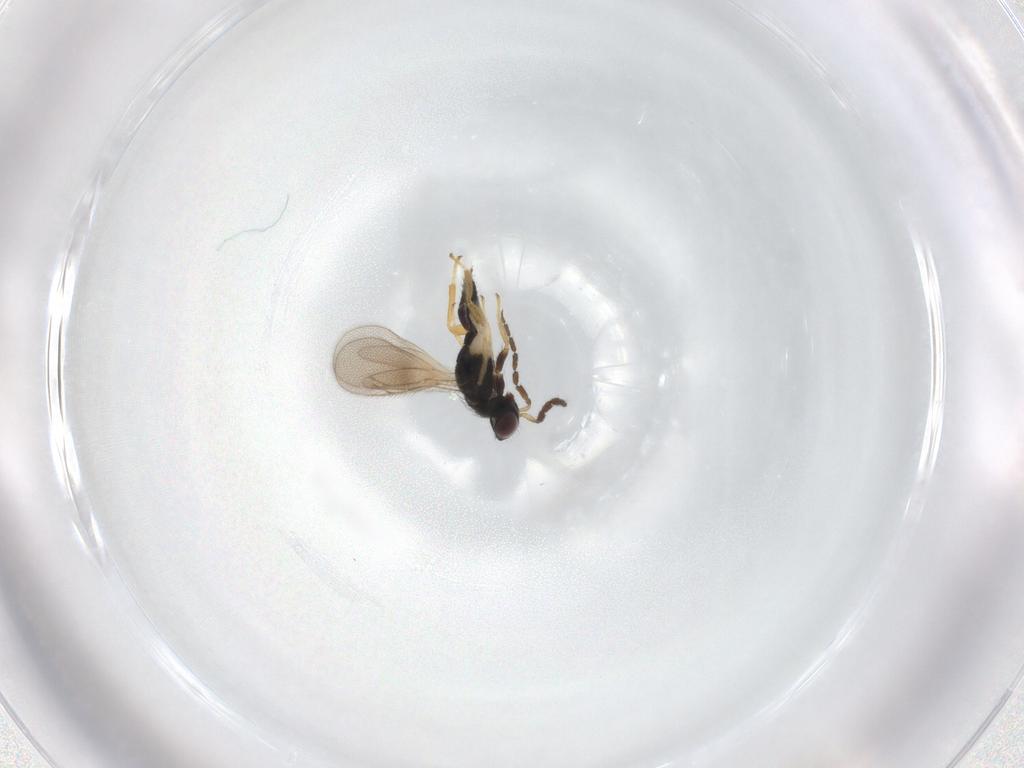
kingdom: Animalia
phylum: Arthropoda
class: Insecta
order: Hymenoptera
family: Eulophidae
